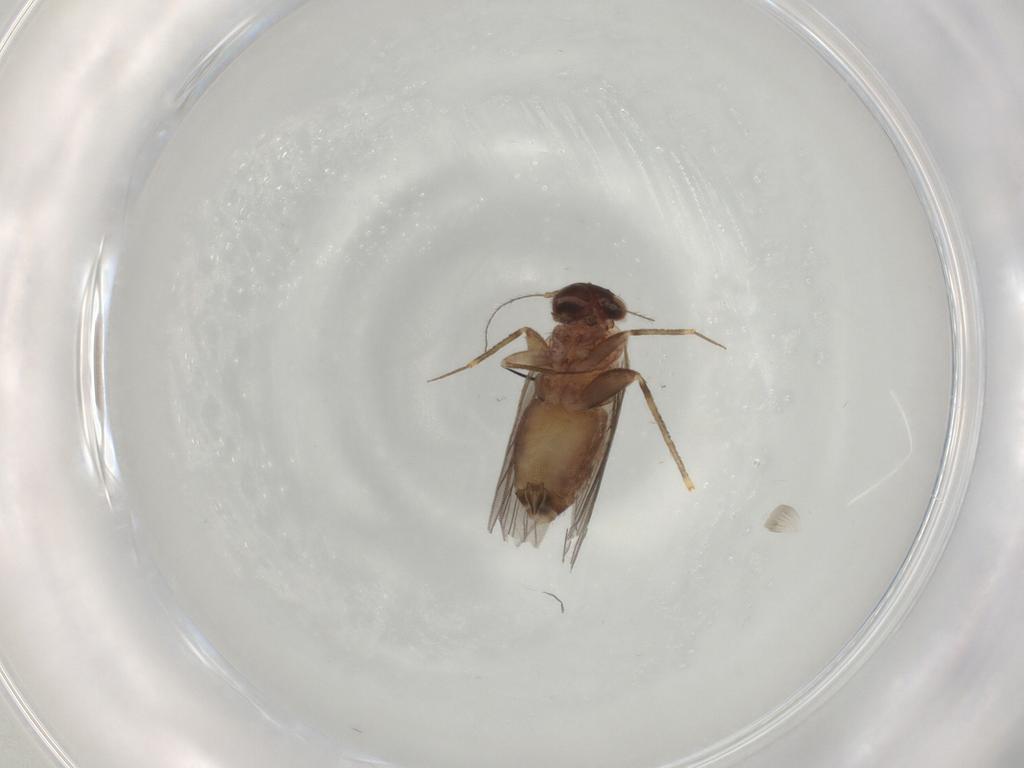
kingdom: Animalia
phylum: Arthropoda
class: Insecta
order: Psocodea
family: Lepidopsocidae
